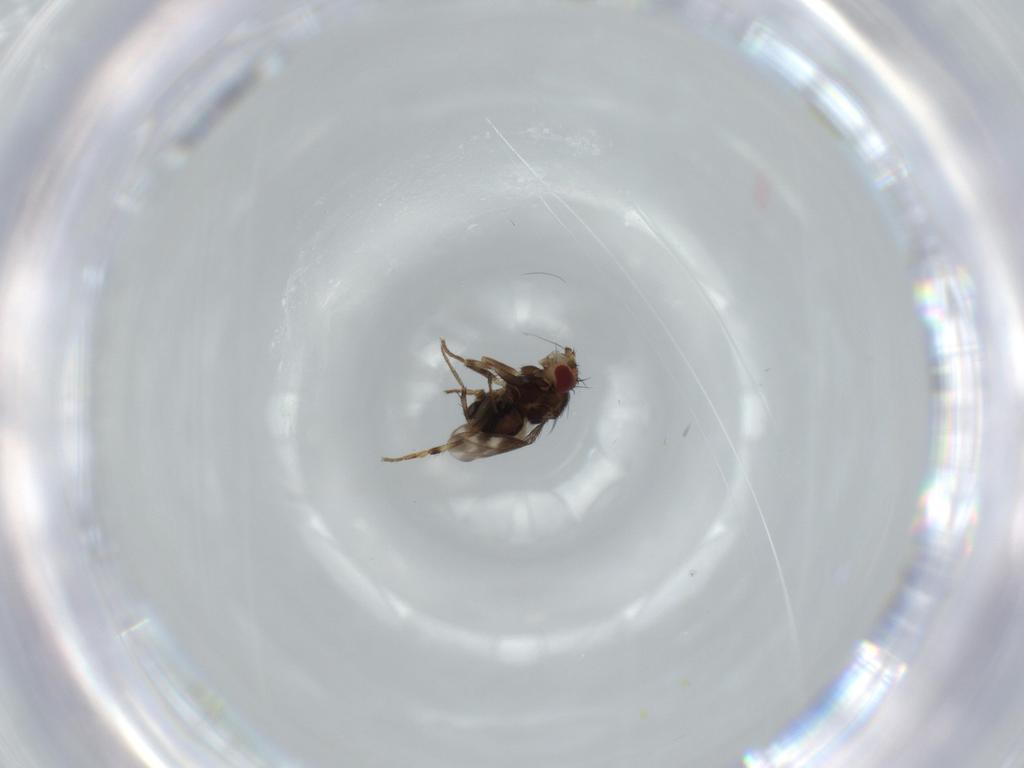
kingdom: Animalia
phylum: Arthropoda
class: Insecta
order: Diptera
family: Sphaeroceridae
